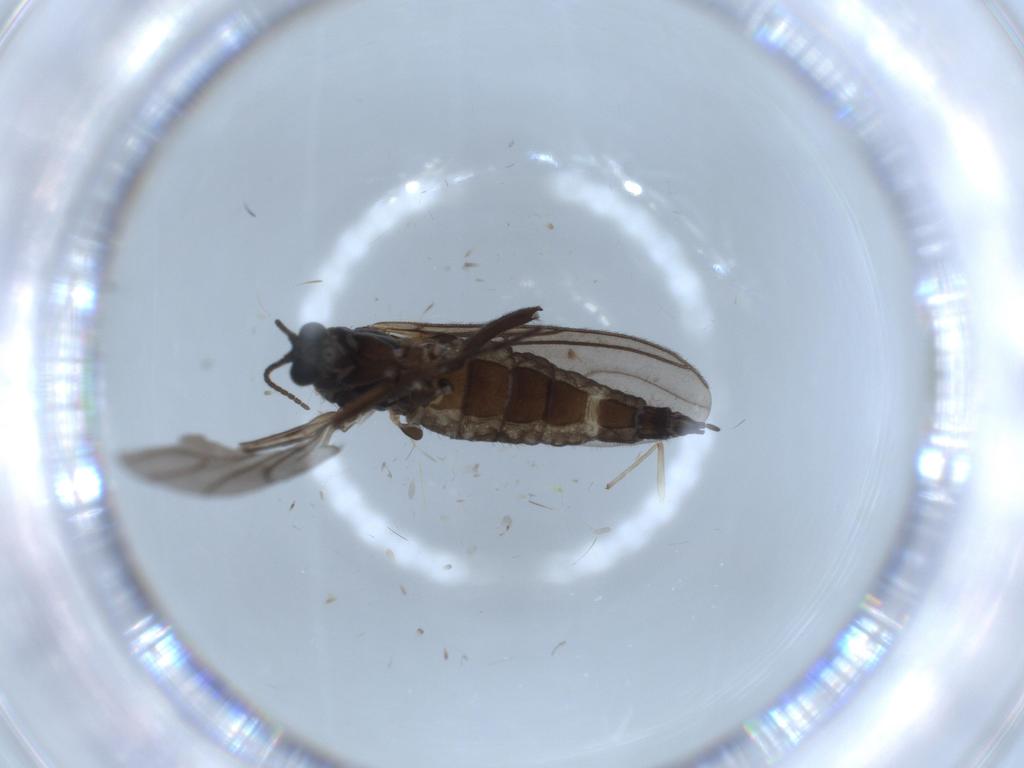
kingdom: Animalia
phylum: Arthropoda
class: Insecta
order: Diptera
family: Sciaridae
